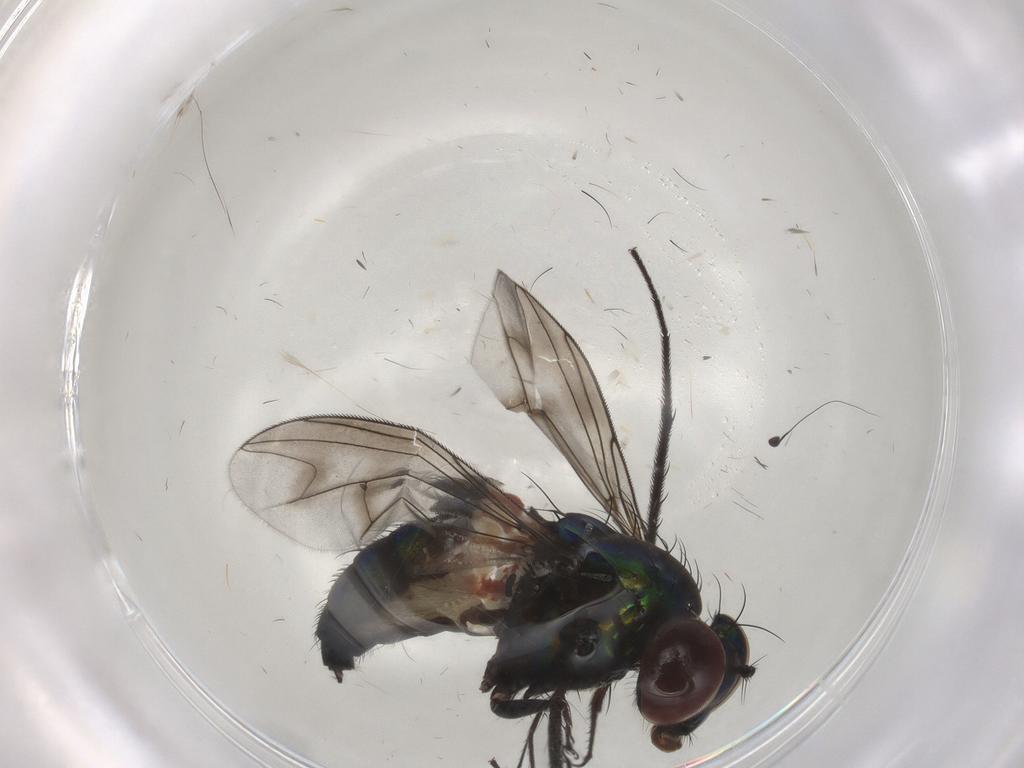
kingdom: Animalia
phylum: Arthropoda
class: Insecta
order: Diptera
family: Dolichopodidae
